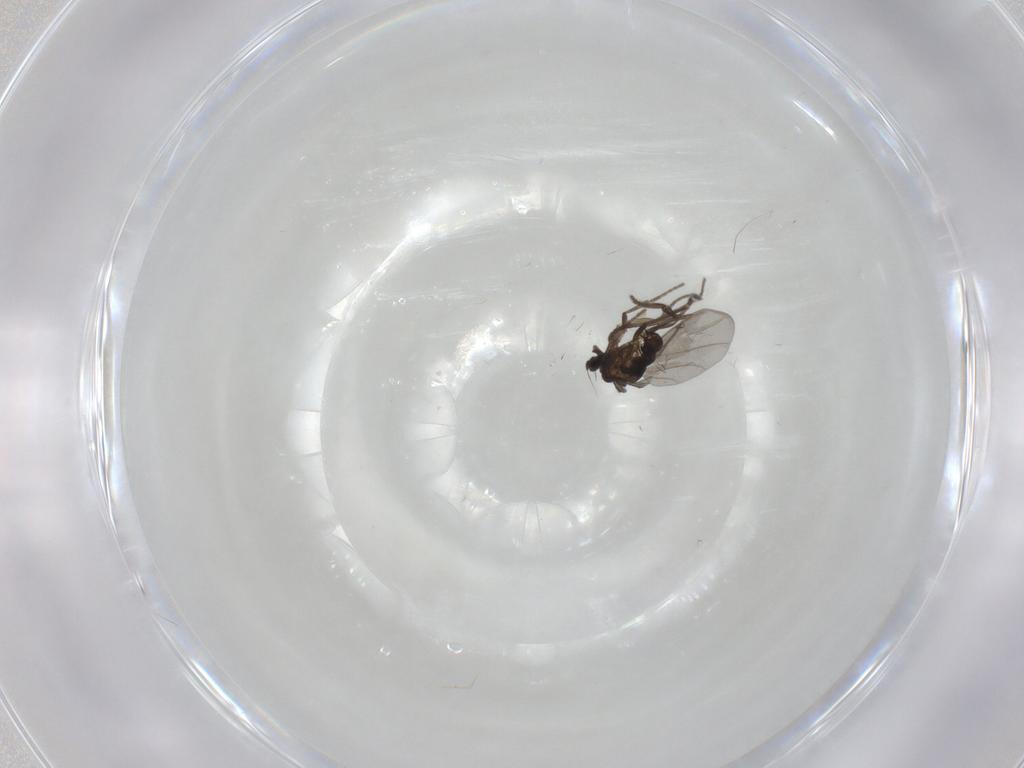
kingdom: Animalia
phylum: Arthropoda
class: Insecta
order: Diptera
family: Phoridae
